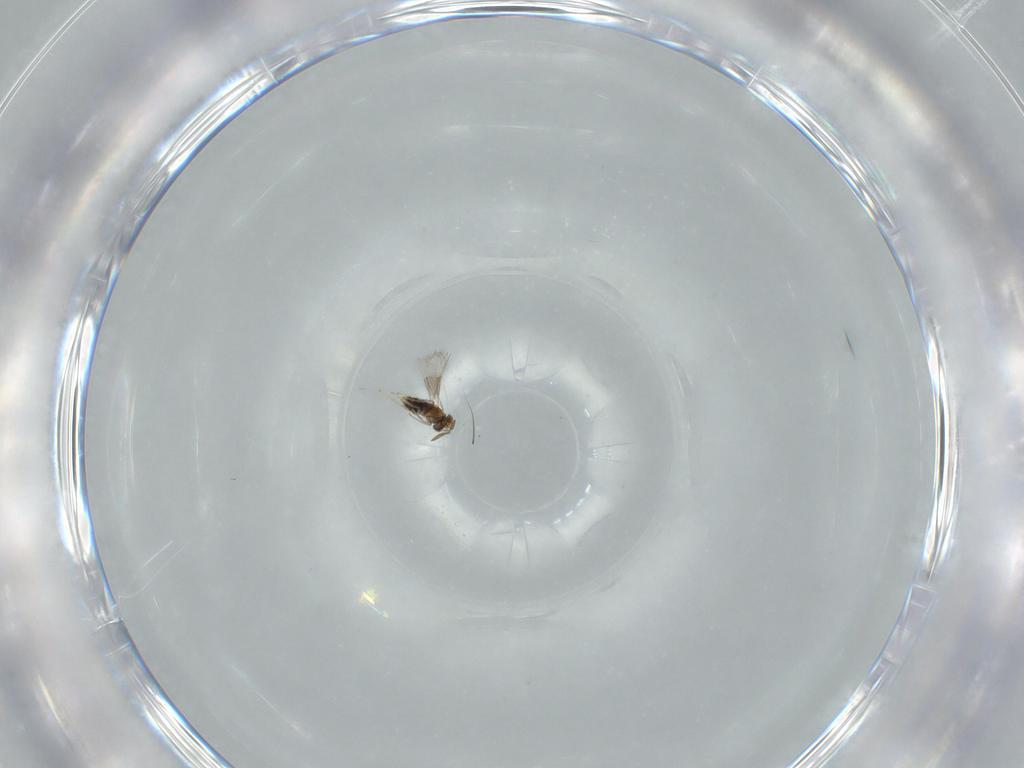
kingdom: Animalia
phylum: Arthropoda
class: Insecta
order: Hymenoptera
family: Aphelinidae
